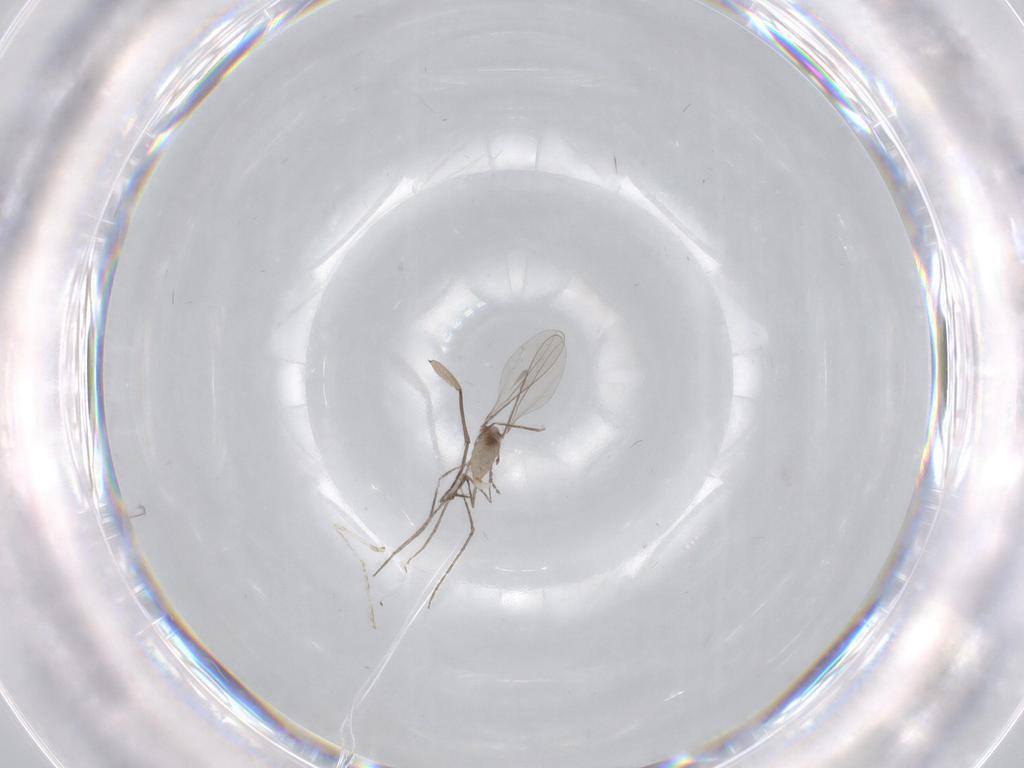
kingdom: Animalia
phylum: Arthropoda
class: Insecta
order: Diptera
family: Cecidomyiidae
